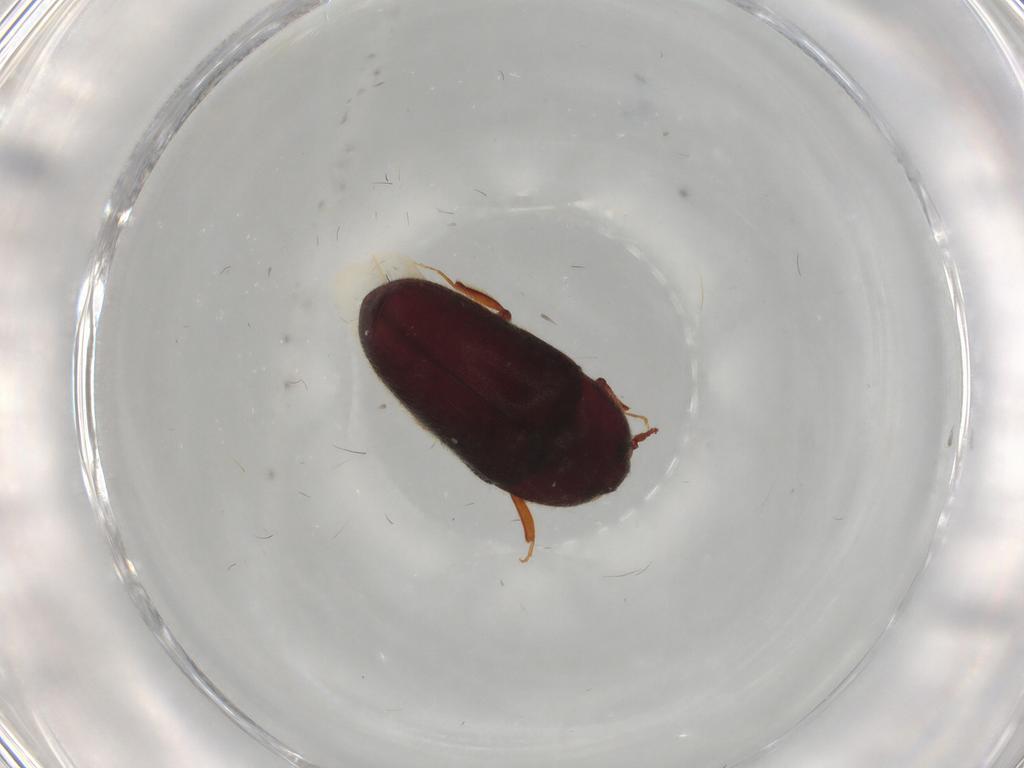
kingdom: Animalia
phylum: Arthropoda
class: Insecta
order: Coleoptera
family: Throscidae
